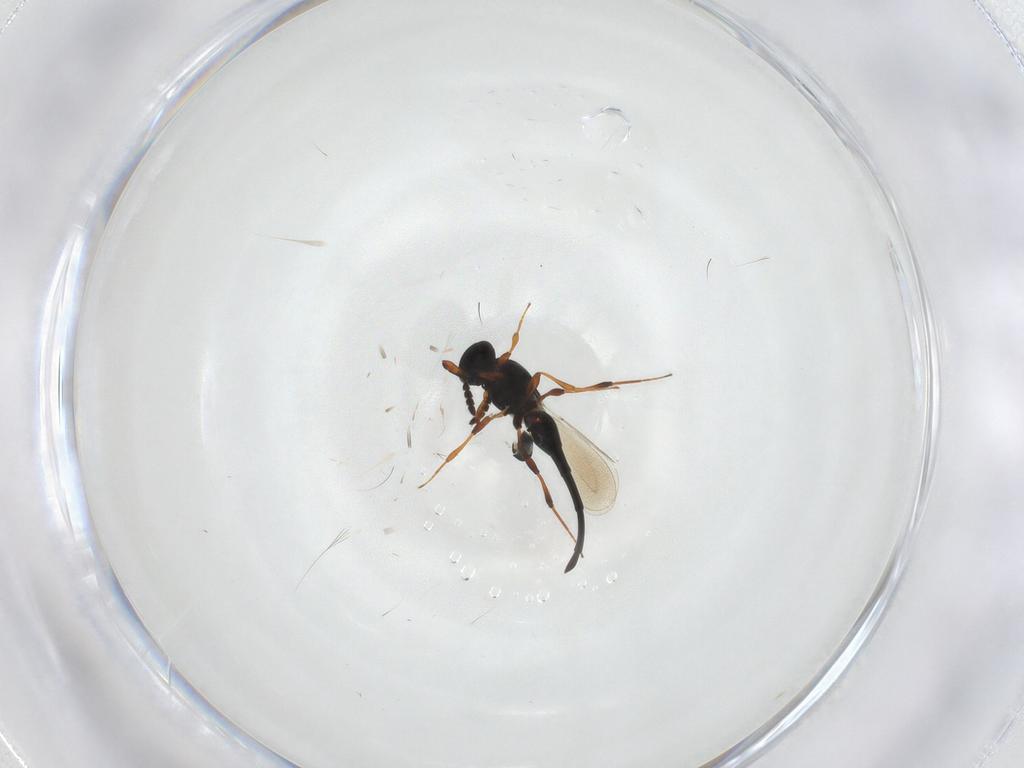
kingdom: Animalia
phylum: Arthropoda
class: Insecta
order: Hymenoptera
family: Platygastridae
